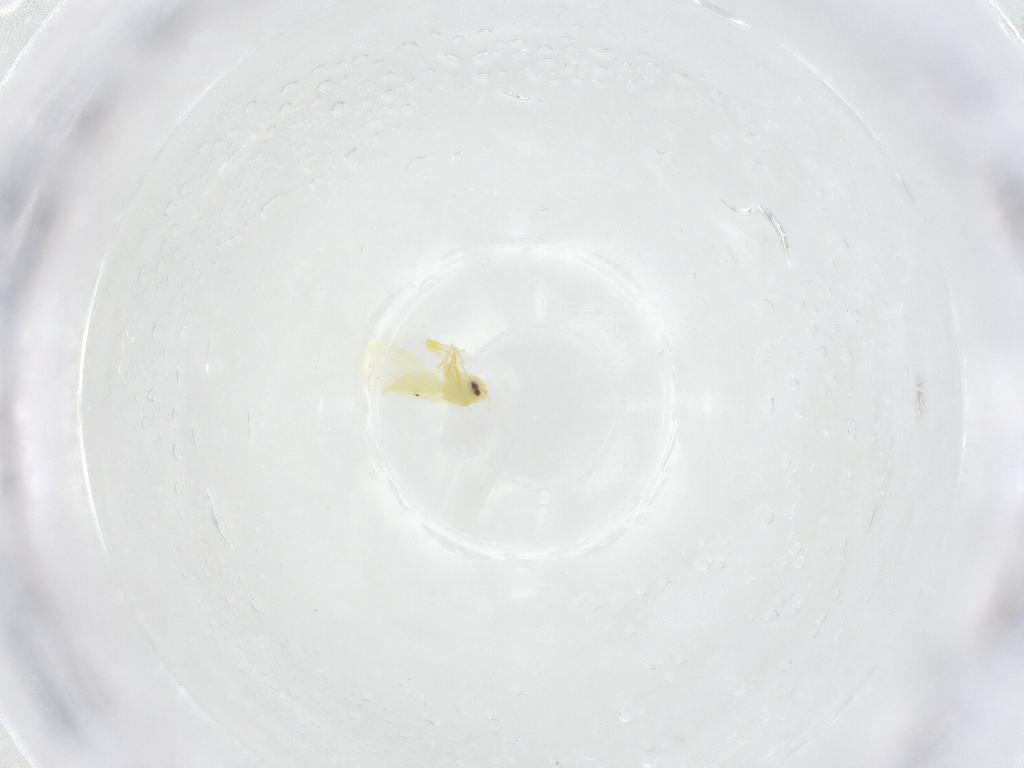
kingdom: Animalia
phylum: Arthropoda
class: Insecta
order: Hemiptera
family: Aleyrodidae
